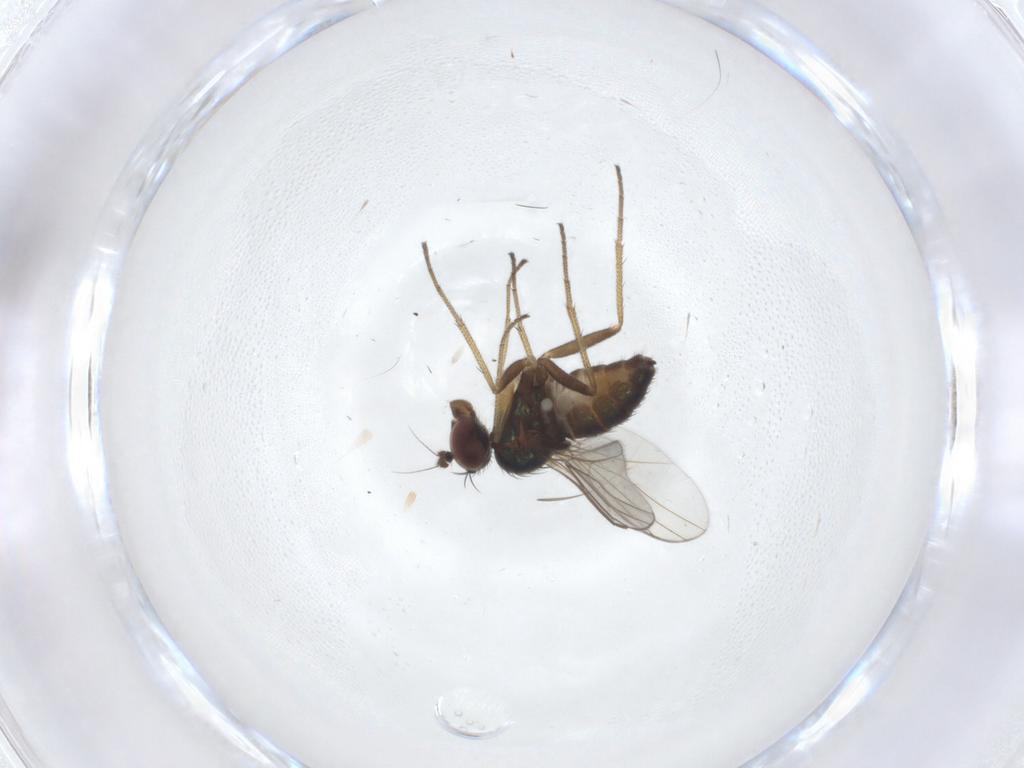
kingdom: Animalia
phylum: Arthropoda
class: Insecta
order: Diptera
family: Dolichopodidae
